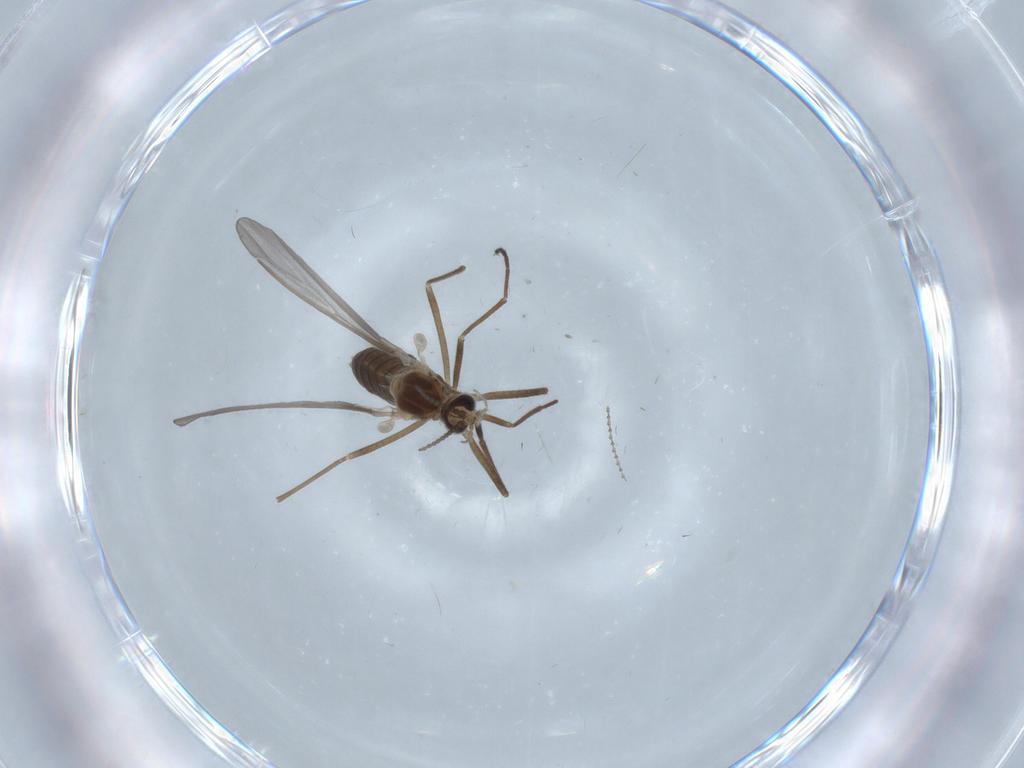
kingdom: Animalia
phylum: Arthropoda
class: Insecta
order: Diptera
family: Cecidomyiidae
